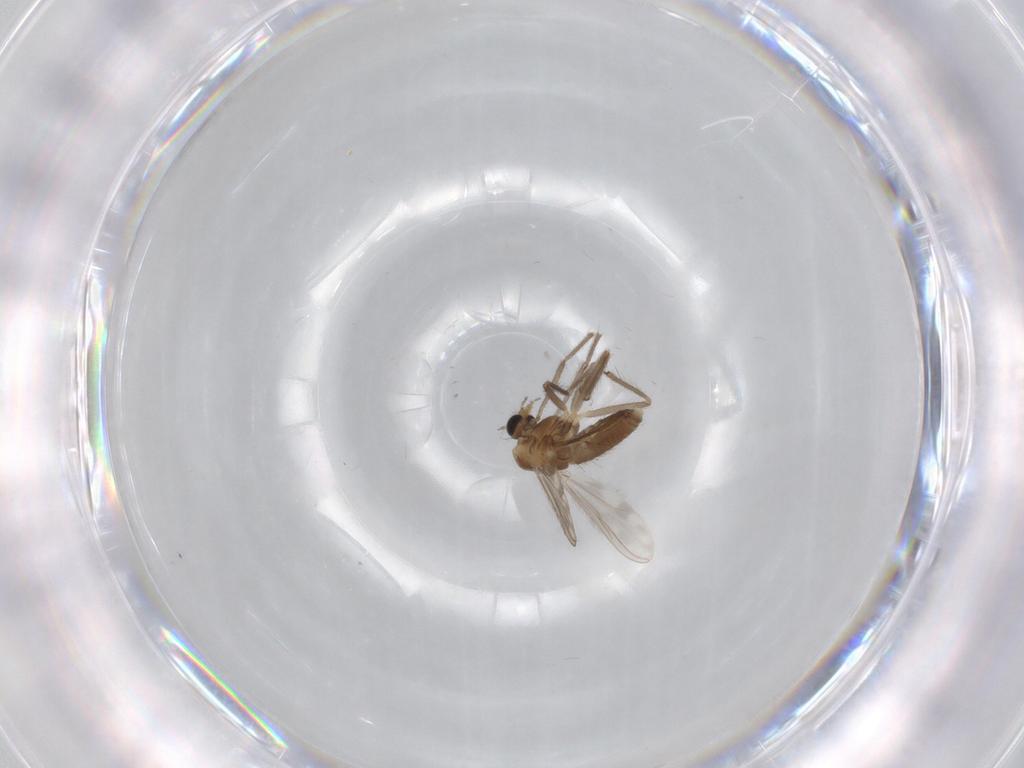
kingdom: Animalia
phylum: Arthropoda
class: Insecta
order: Diptera
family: Chironomidae
